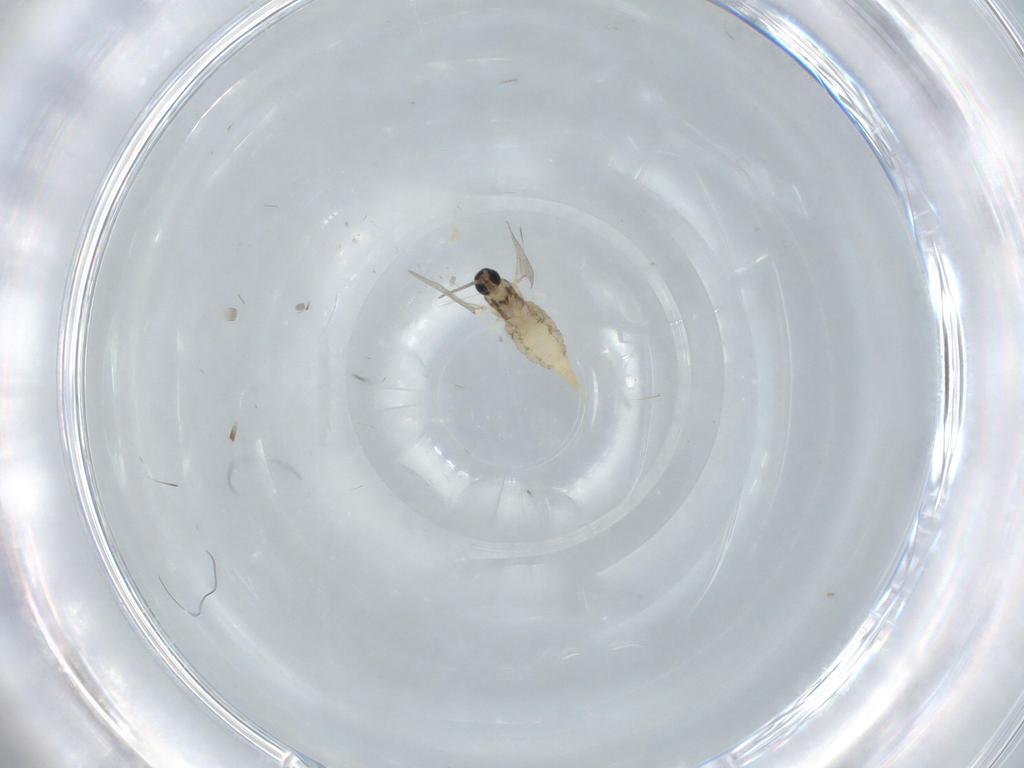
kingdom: Animalia
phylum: Arthropoda
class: Insecta
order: Diptera
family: Cecidomyiidae
